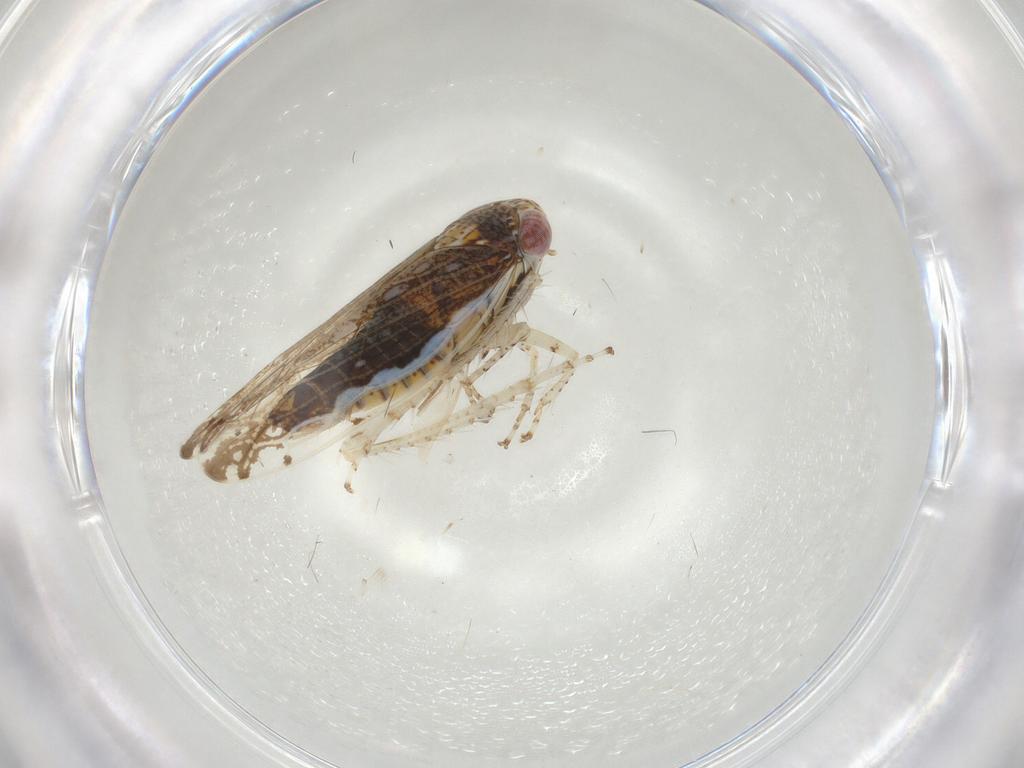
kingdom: Animalia
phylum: Arthropoda
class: Insecta
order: Hemiptera
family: Cicadellidae
